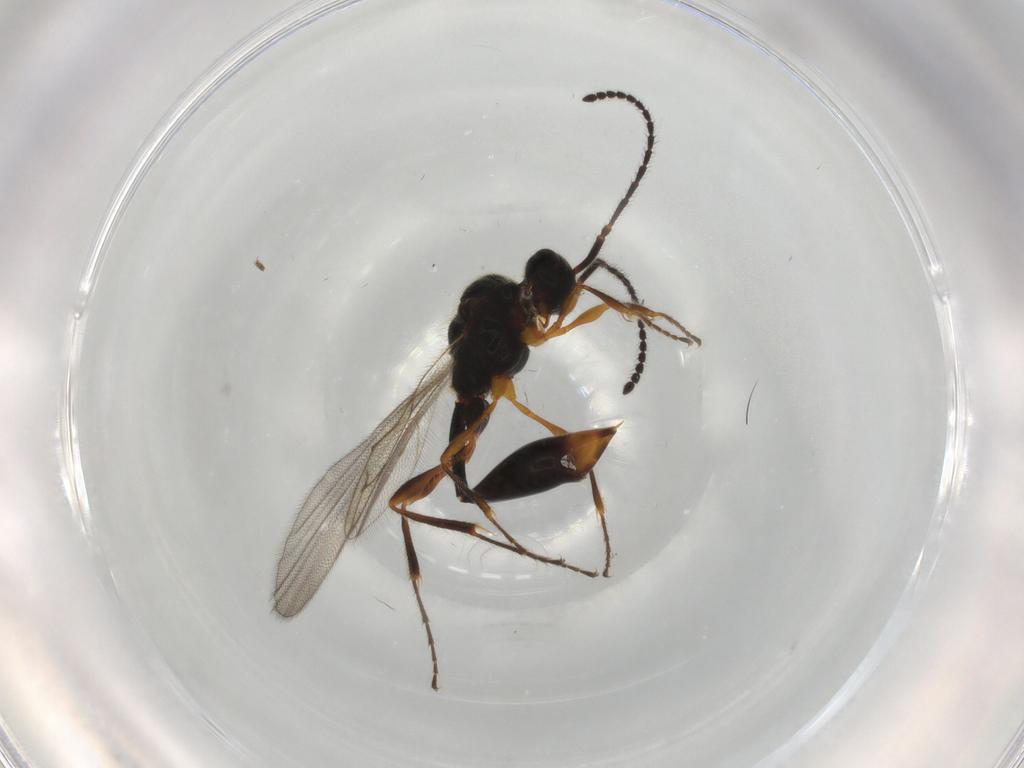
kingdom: Animalia
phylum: Arthropoda
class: Insecta
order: Hymenoptera
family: Diapriidae
